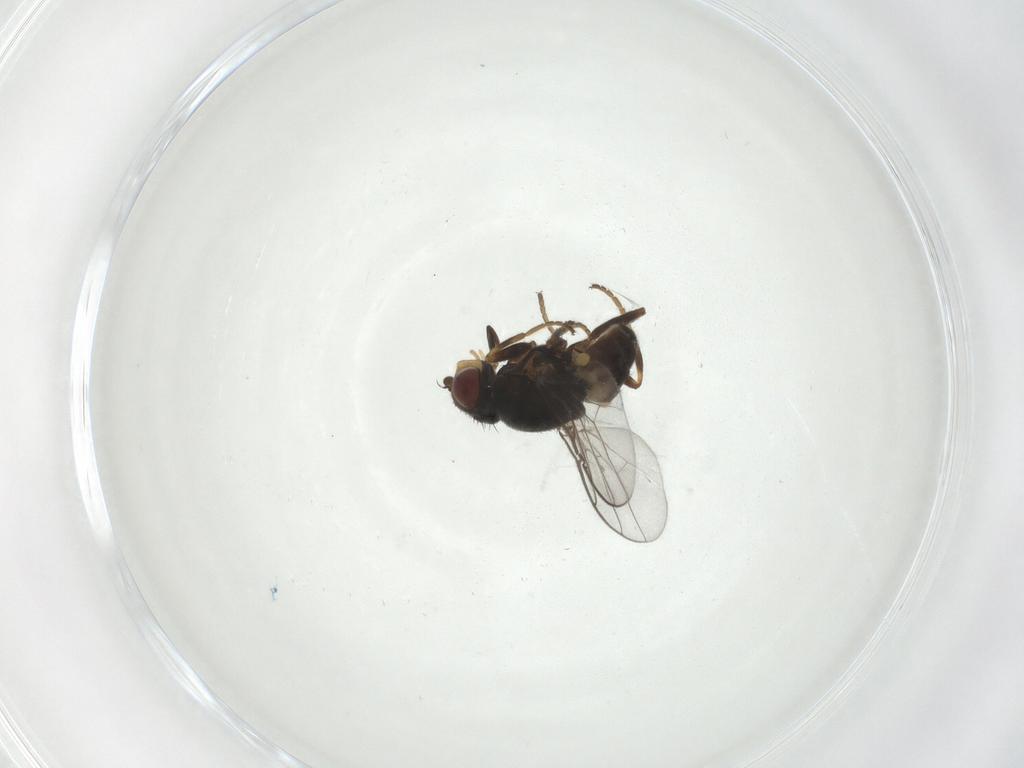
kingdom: Animalia
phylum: Arthropoda
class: Insecta
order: Diptera
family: Chloropidae
